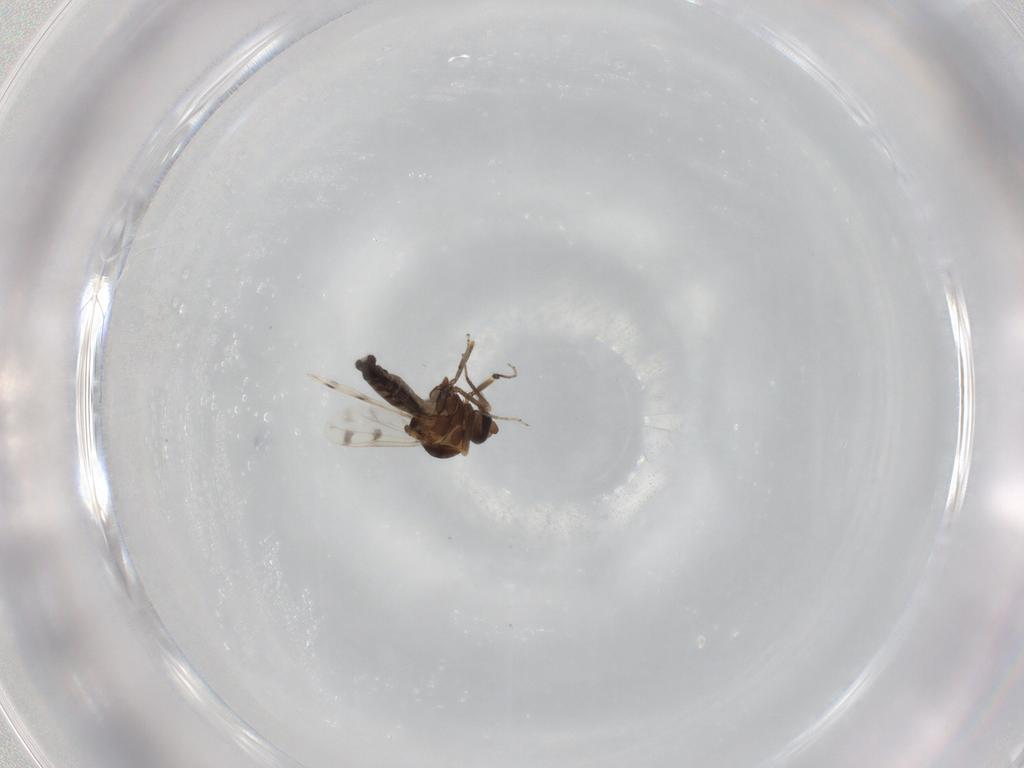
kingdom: Animalia
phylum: Arthropoda
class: Insecta
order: Diptera
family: Ceratopogonidae
